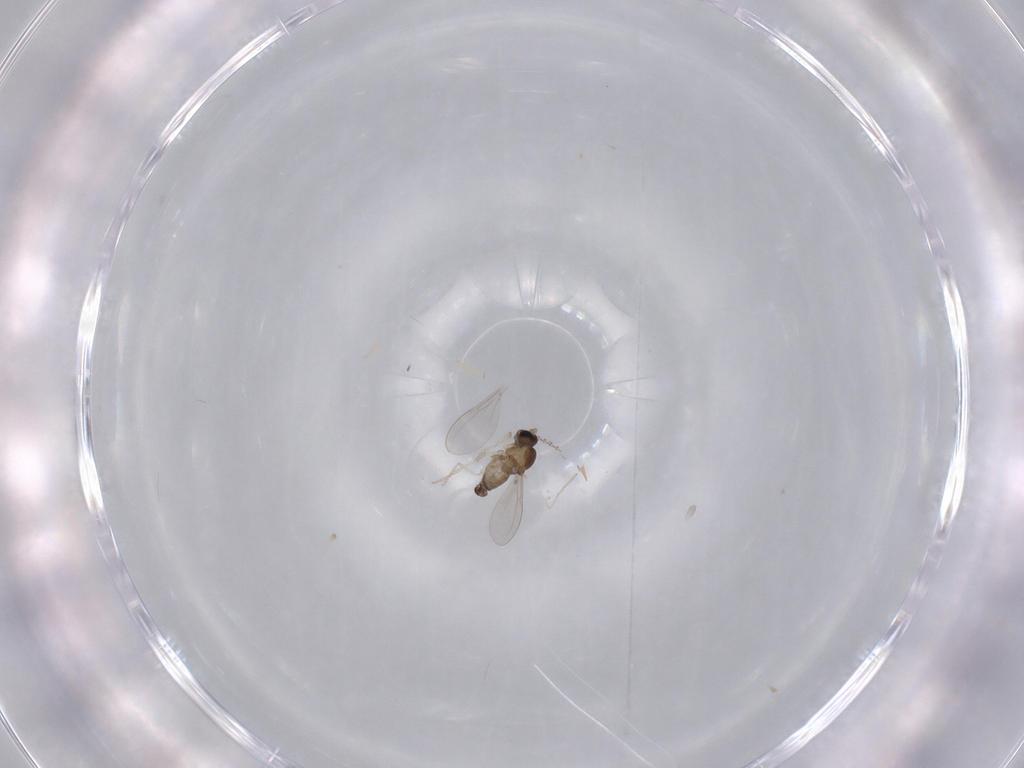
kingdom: Animalia
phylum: Arthropoda
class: Insecta
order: Diptera
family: Cecidomyiidae
